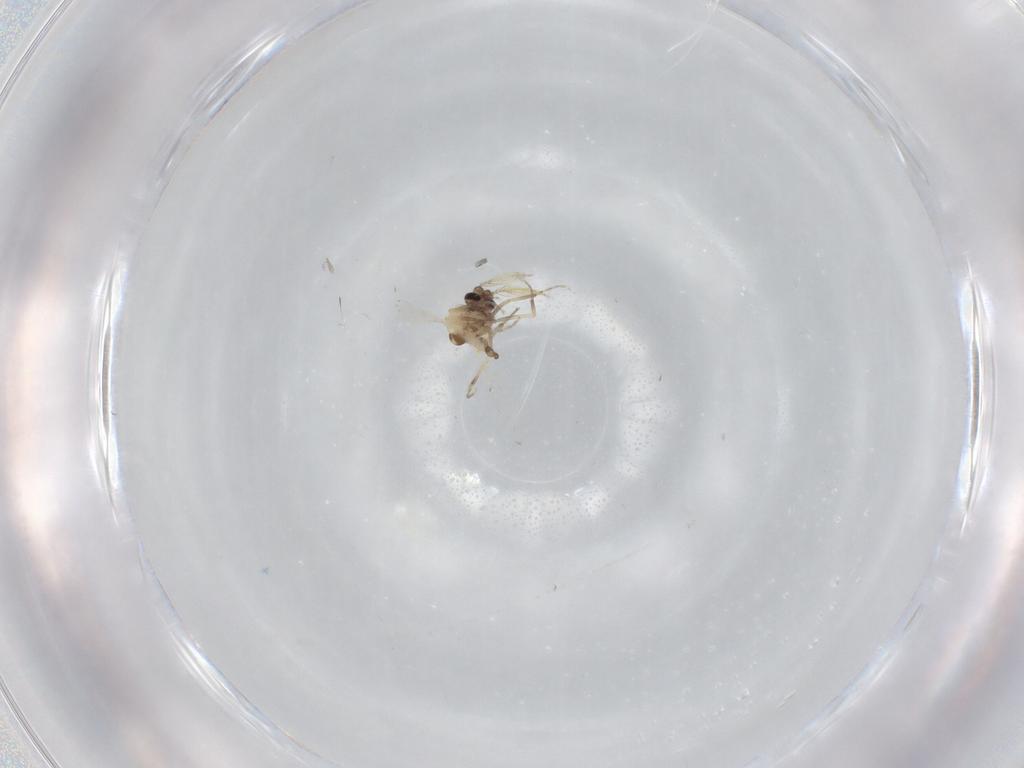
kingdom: Animalia
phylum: Arthropoda
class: Insecta
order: Diptera
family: Ceratopogonidae
